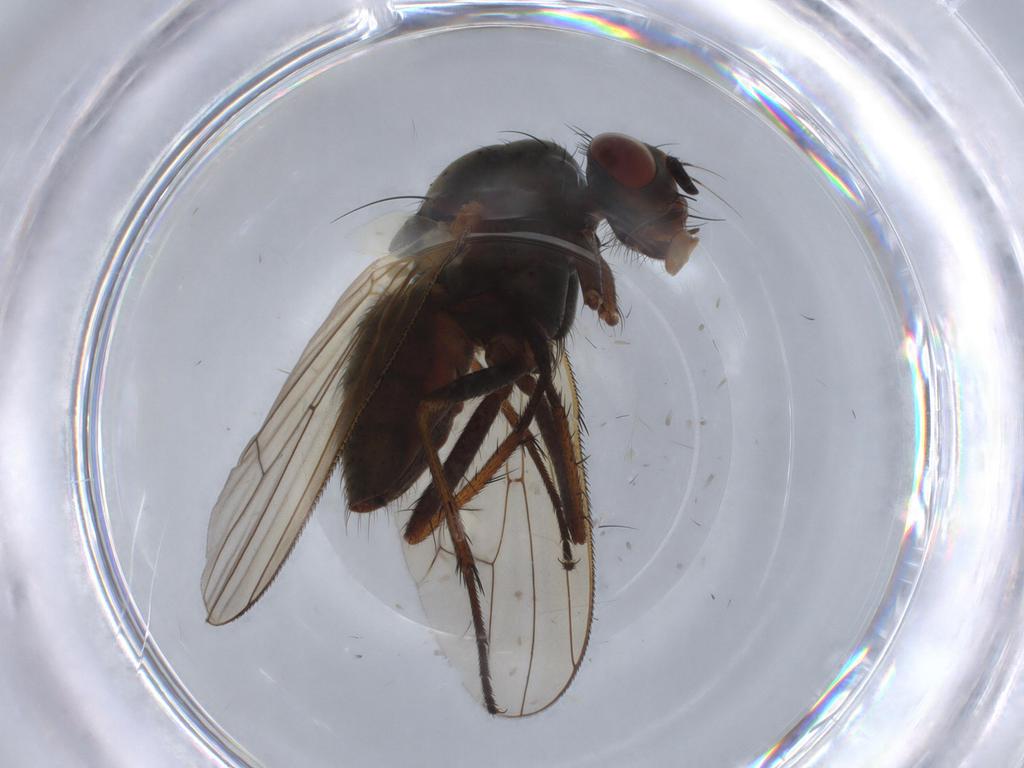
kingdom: Animalia
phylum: Arthropoda
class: Insecta
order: Diptera
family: Anthomyiidae
